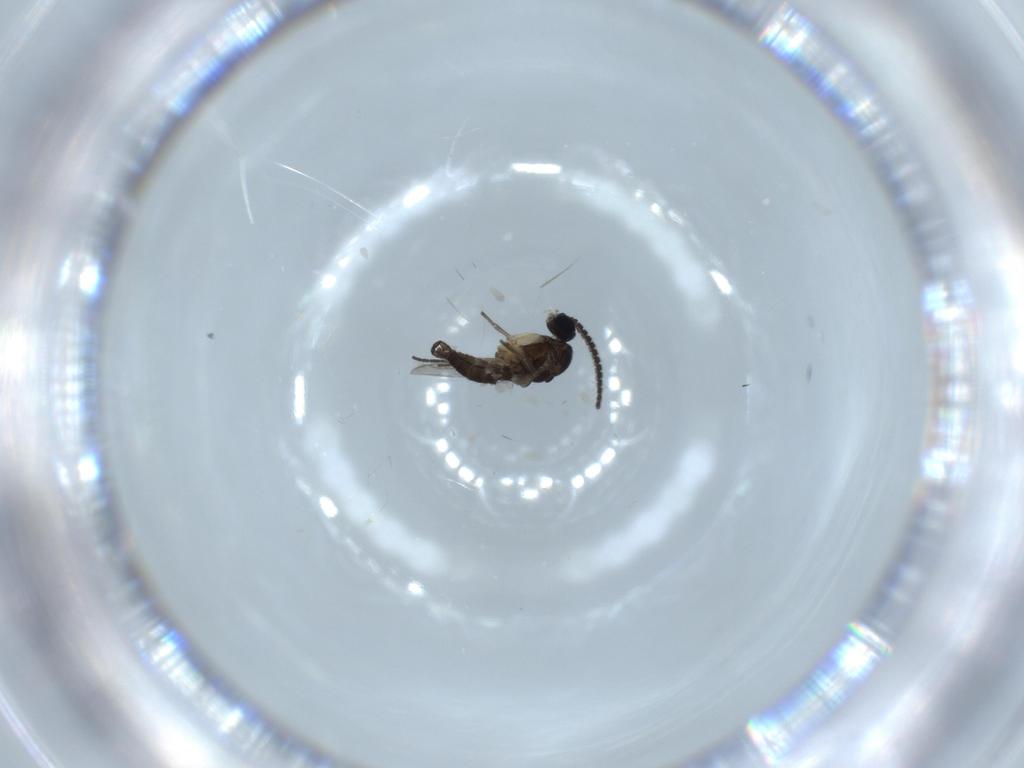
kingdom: Animalia
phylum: Arthropoda
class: Insecta
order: Diptera
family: Sciaridae
